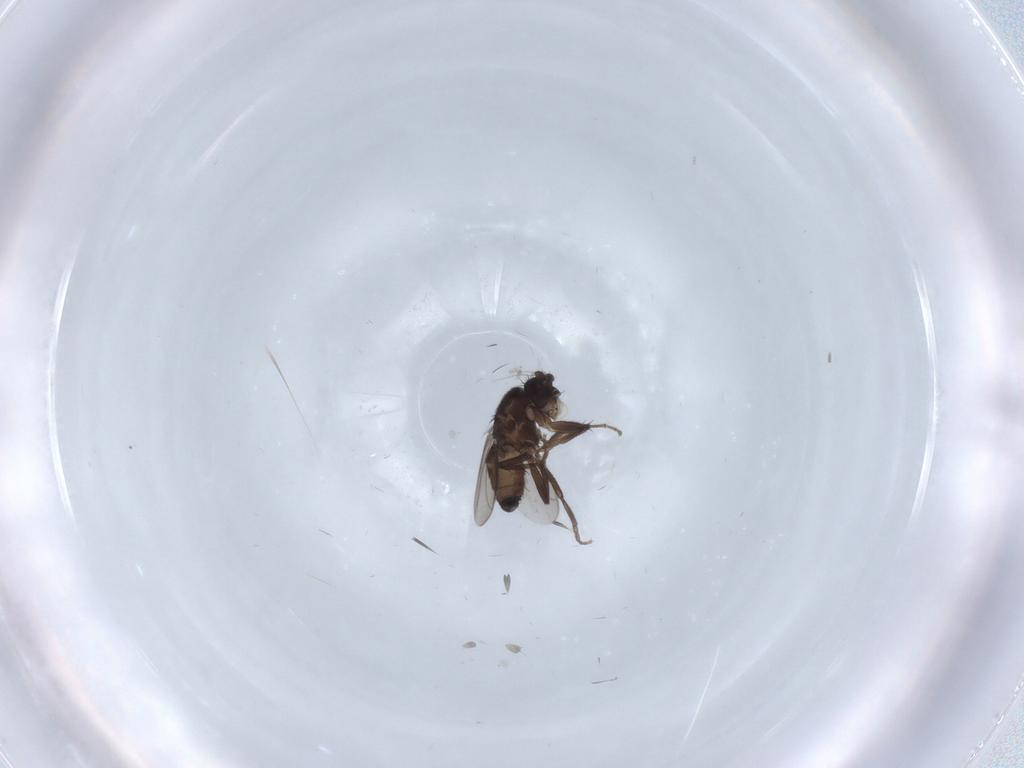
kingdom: Animalia
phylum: Arthropoda
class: Insecta
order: Diptera
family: Sphaeroceridae
